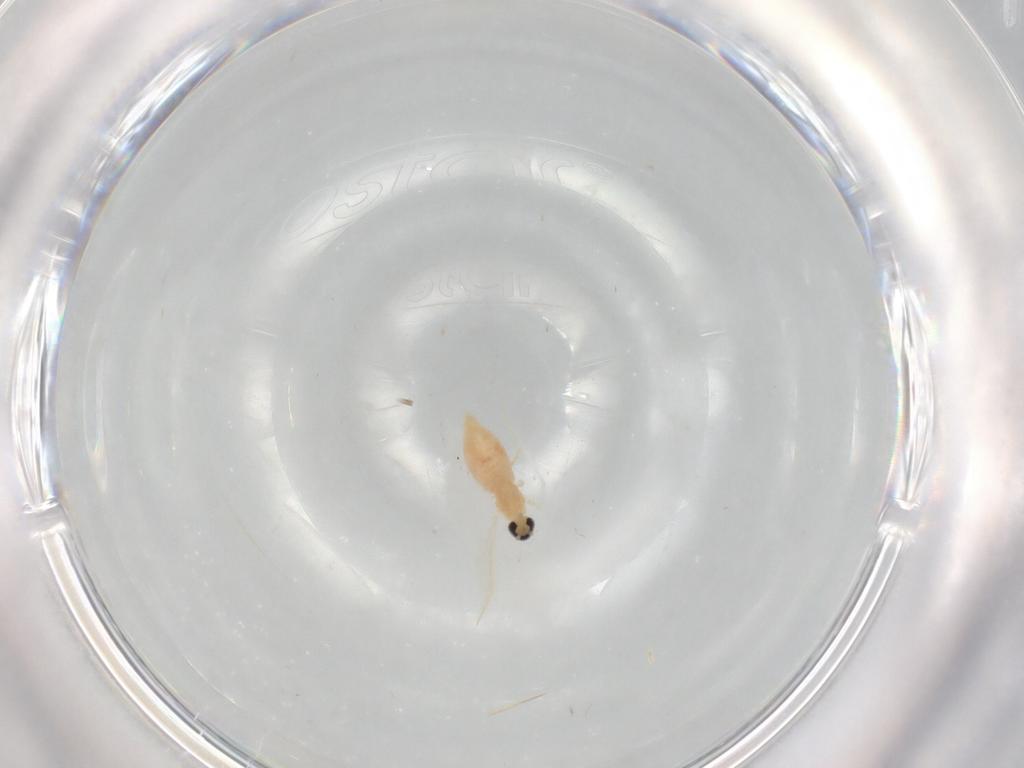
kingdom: Animalia
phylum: Arthropoda
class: Insecta
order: Diptera
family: Cecidomyiidae
